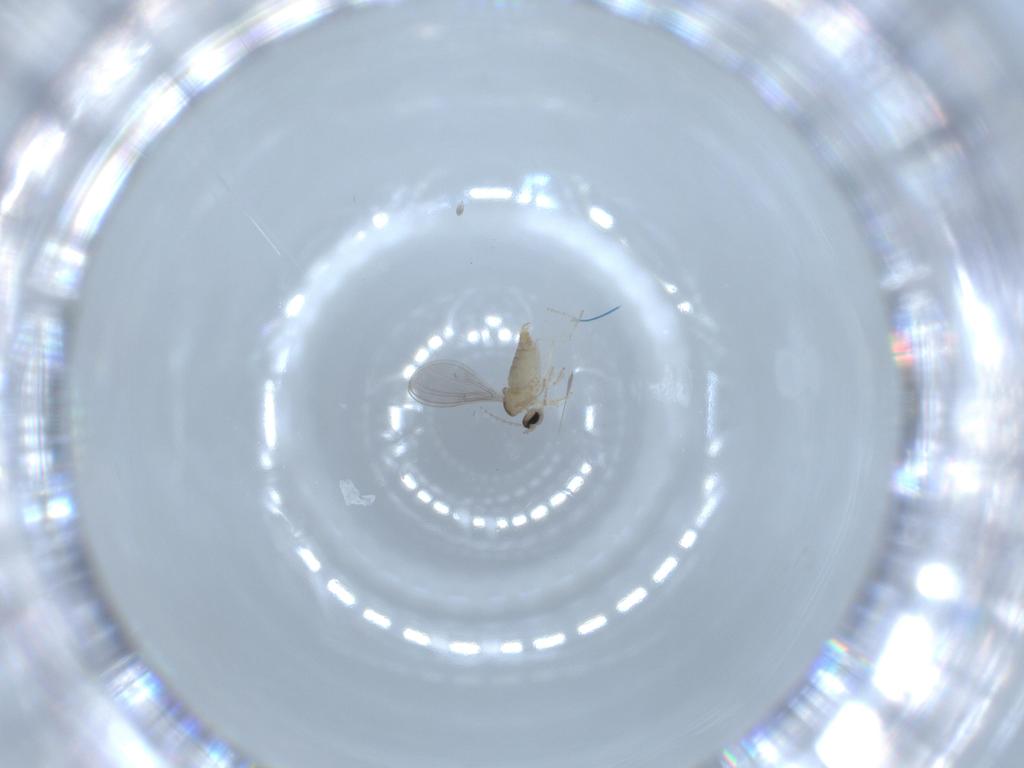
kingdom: Animalia
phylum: Arthropoda
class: Insecta
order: Diptera
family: Cecidomyiidae
